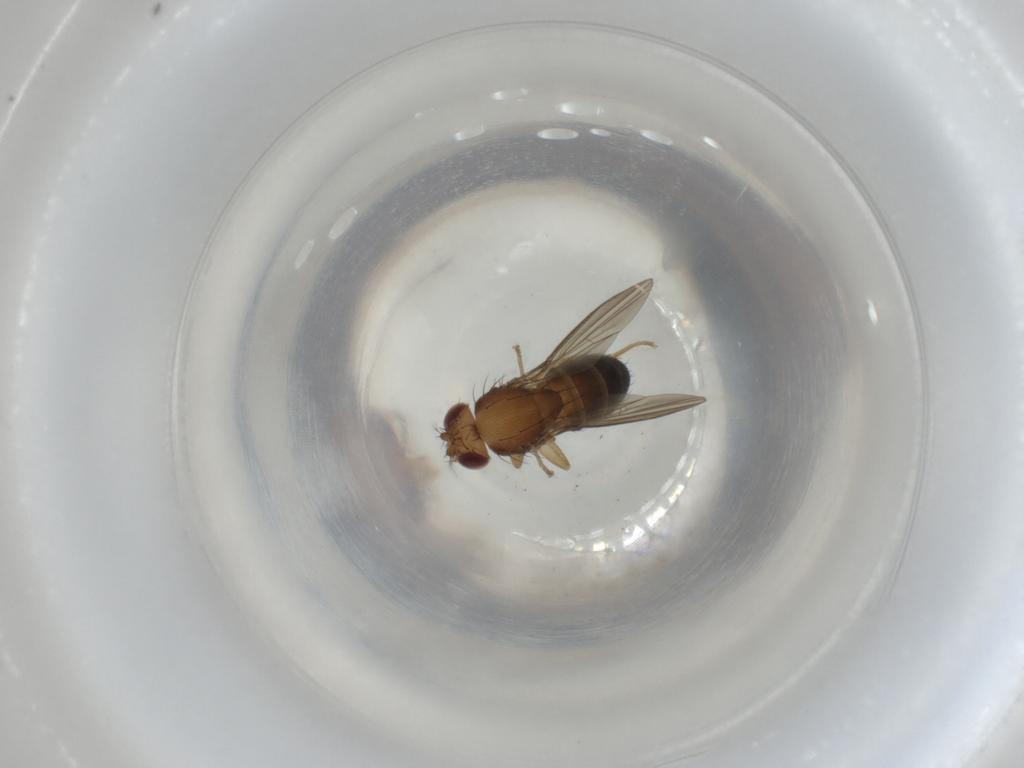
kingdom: Animalia
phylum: Arthropoda
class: Insecta
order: Diptera
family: Drosophilidae
